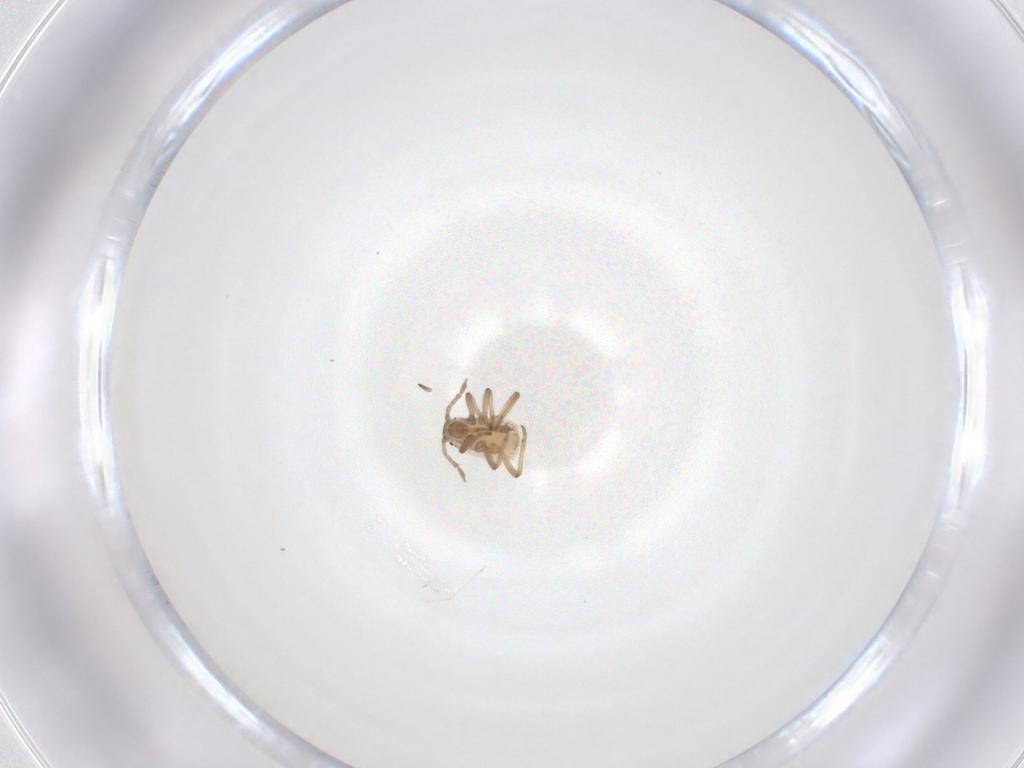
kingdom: Animalia
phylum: Arthropoda
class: Insecta
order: Hemiptera
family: Aphididae
